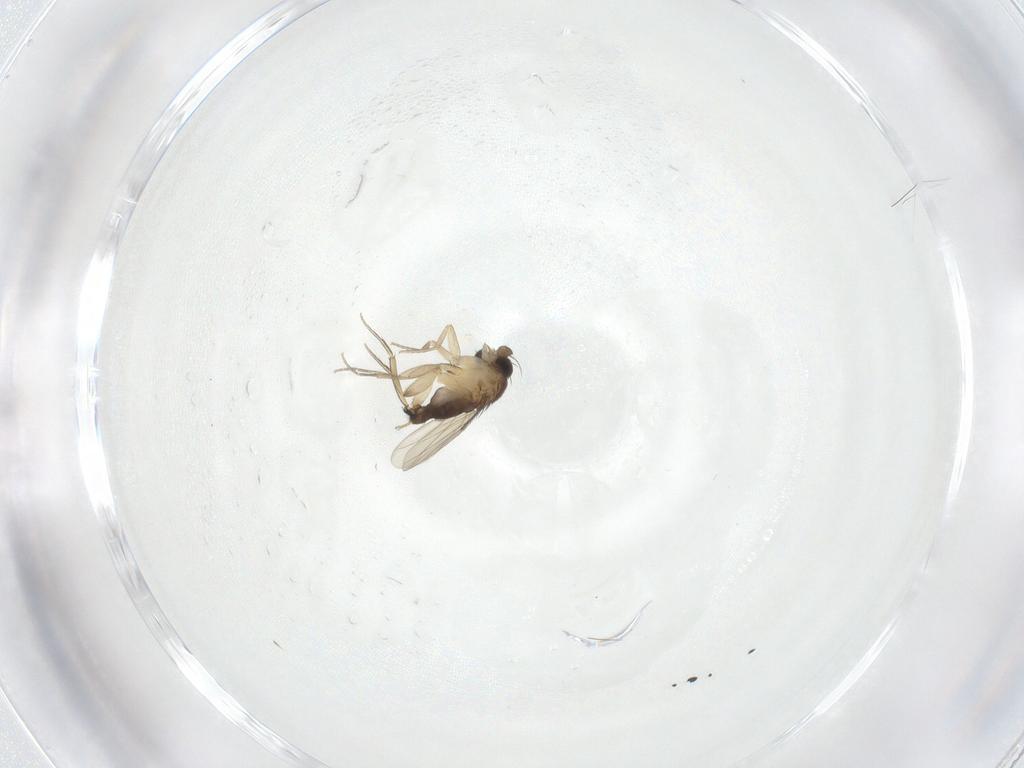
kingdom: Animalia
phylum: Arthropoda
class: Insecta
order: Diptera
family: Phoridae
